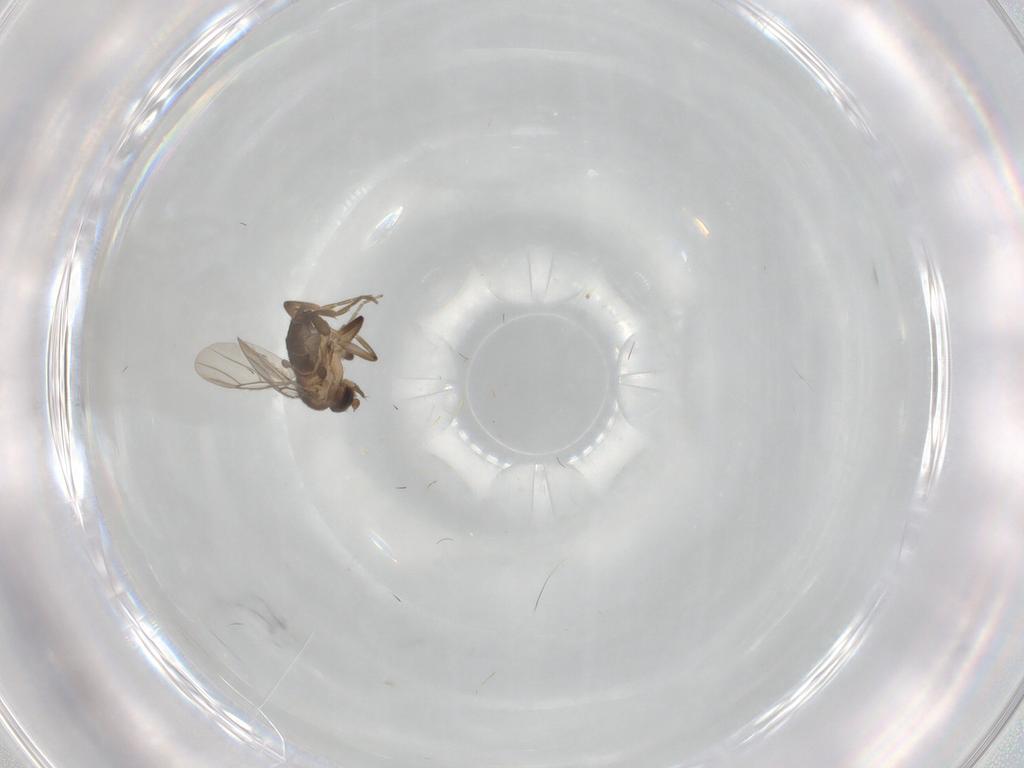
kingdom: Animalia
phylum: Arthropoda
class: Insecta
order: Diptera
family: Phoridae
